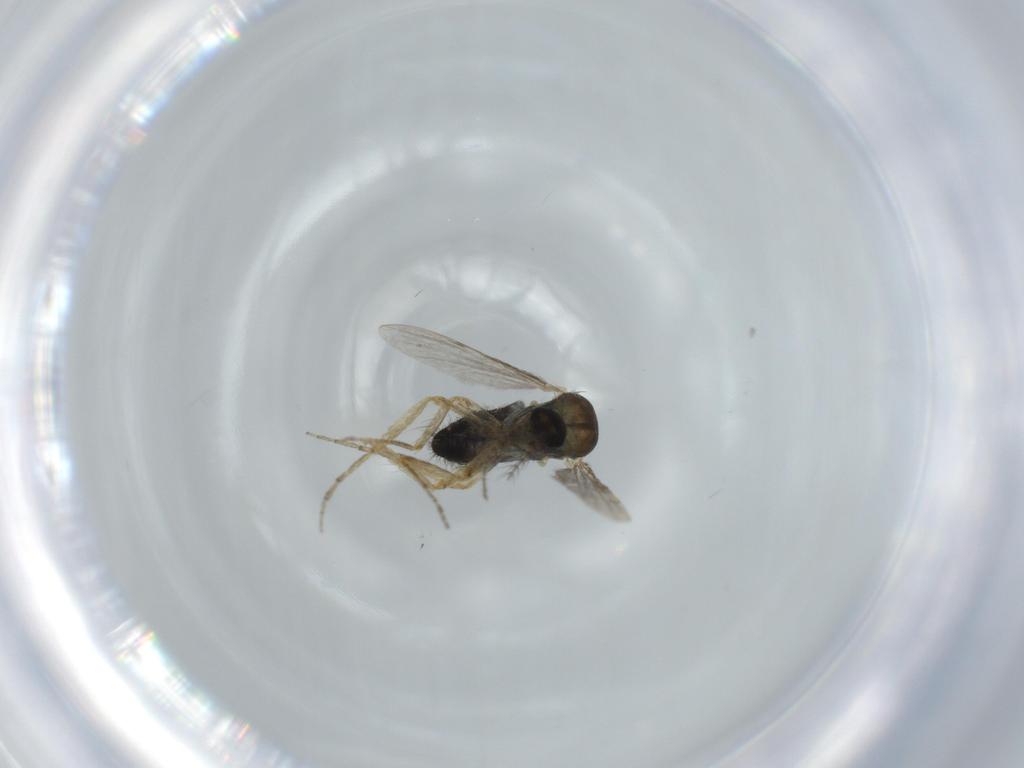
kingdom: Animalia
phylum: Arthropoda
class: Insecta
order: Diptera
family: Ceratopogonidae
